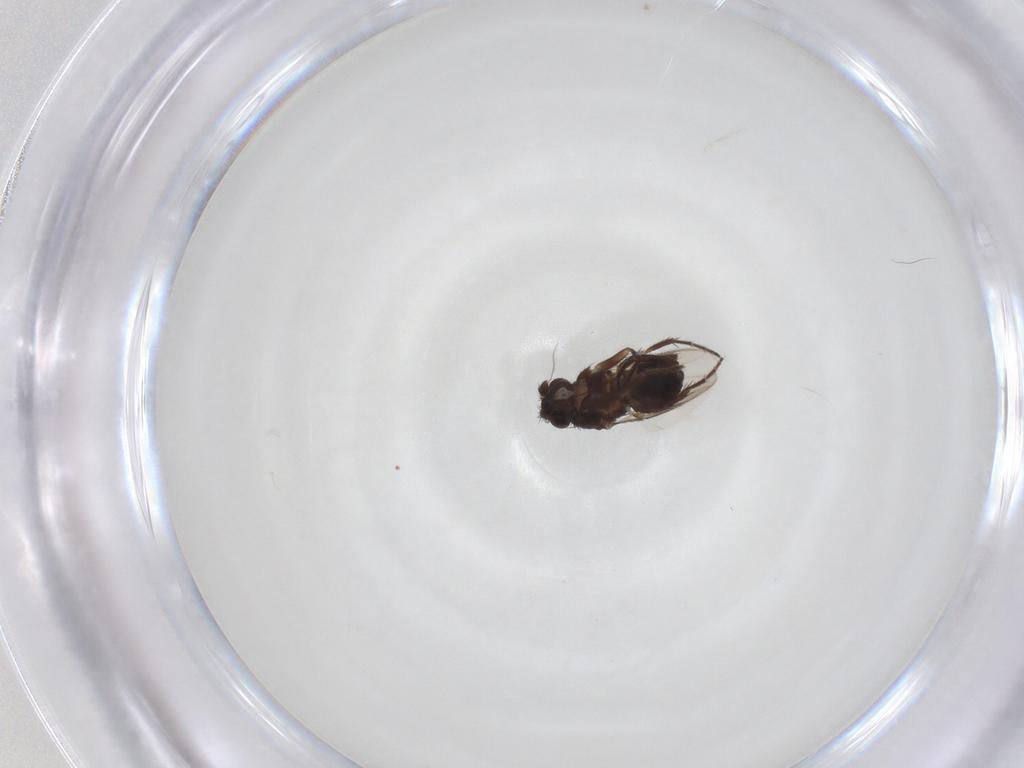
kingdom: Animalia
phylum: Arthropoda
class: Insecta
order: Diptera
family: Sphaeroceridae
